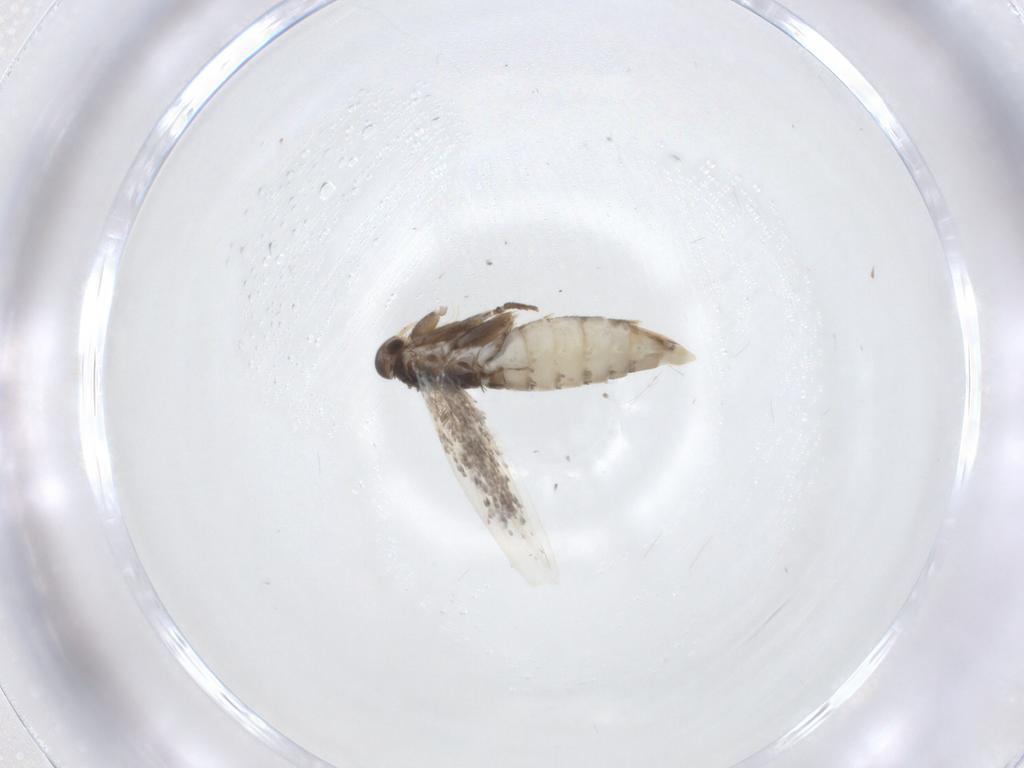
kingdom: Animalia
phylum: Arthropoda
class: Insecta
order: Lepidoptera
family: Elachistidae
